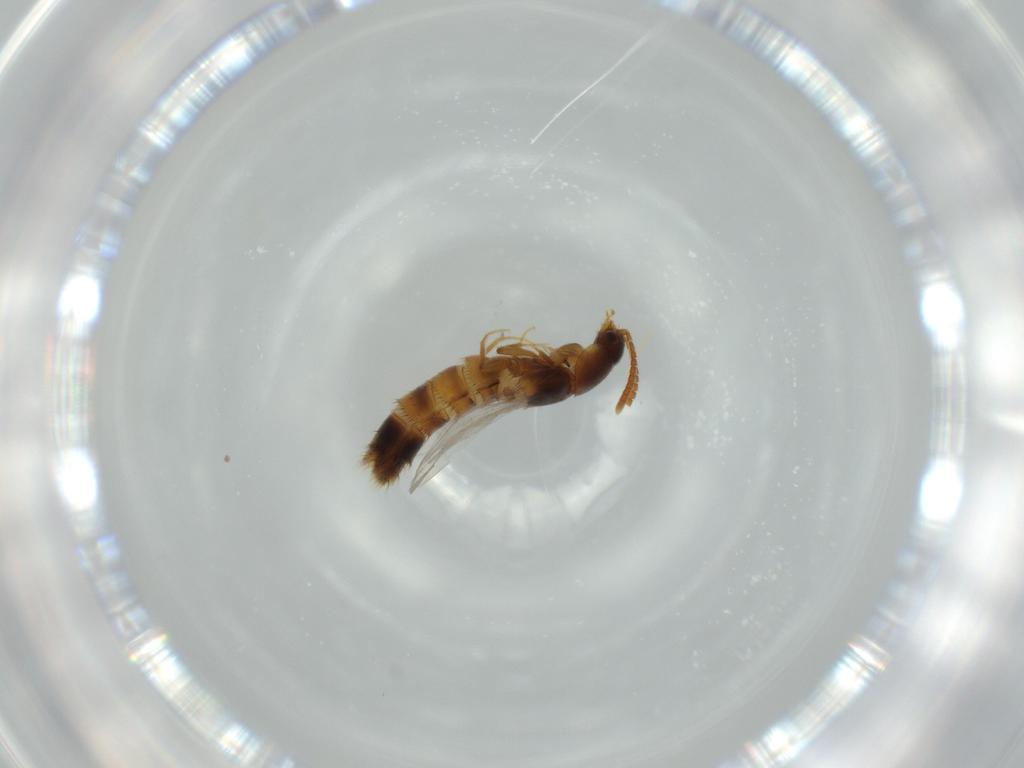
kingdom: Animalia
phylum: Arthropoda
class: Insecta
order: Coleoptera
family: Staphylinidae
